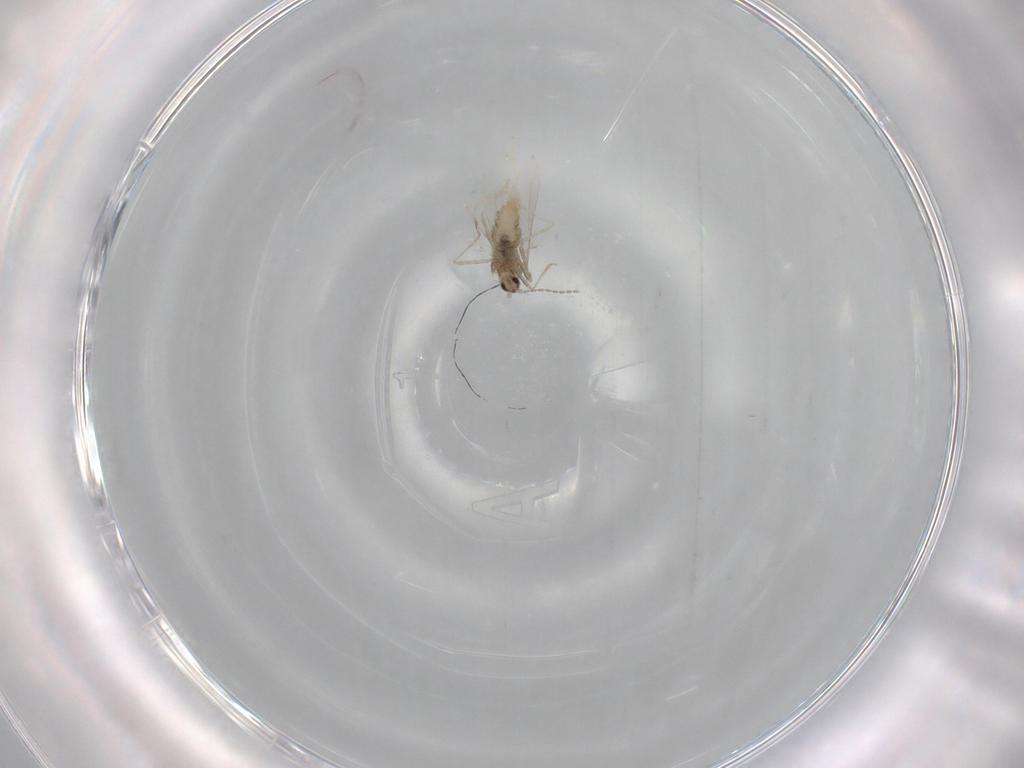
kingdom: Animalia
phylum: Arthropoda
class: Insecta
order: Diptera
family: Cecidomyiidae
